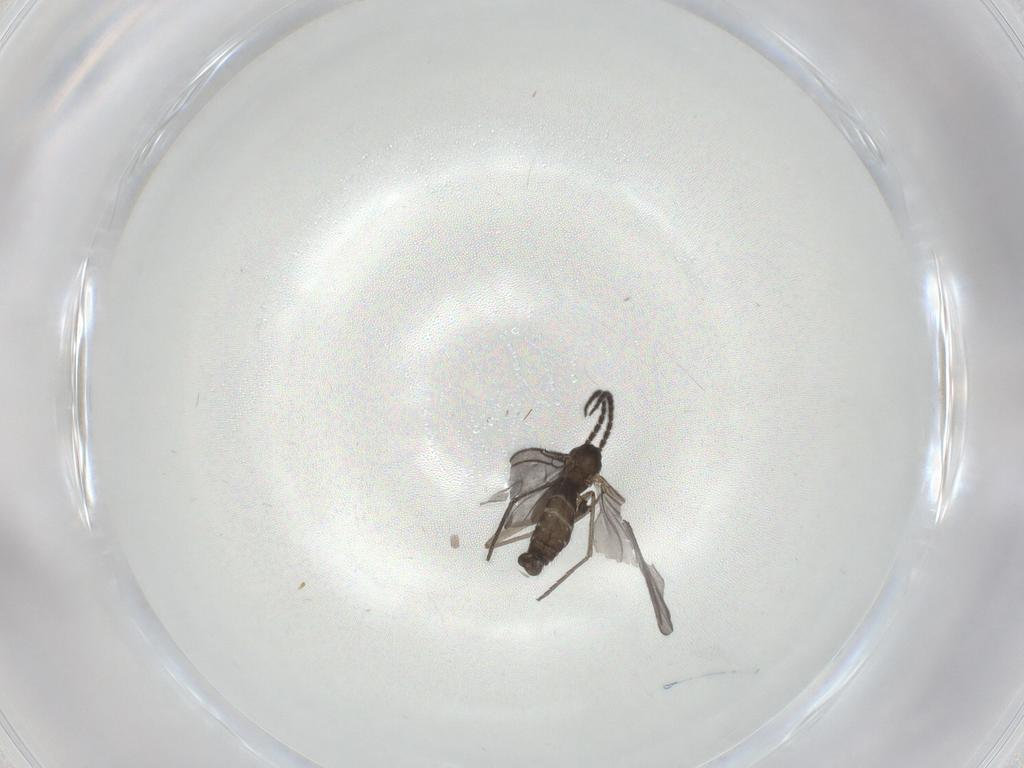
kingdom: Animalia
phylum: Arthropoda
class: Insecta
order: Diptera
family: Sciaridae
